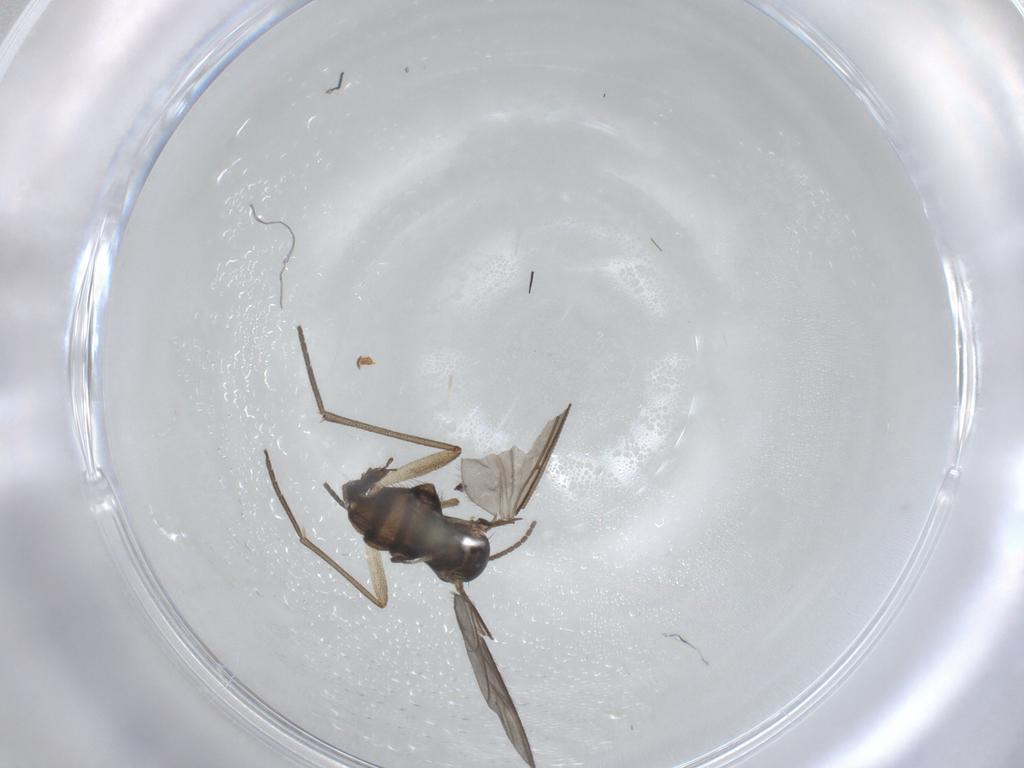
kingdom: Animalia
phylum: Arthropoda
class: Insecta
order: Diptera
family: Sciaridae
